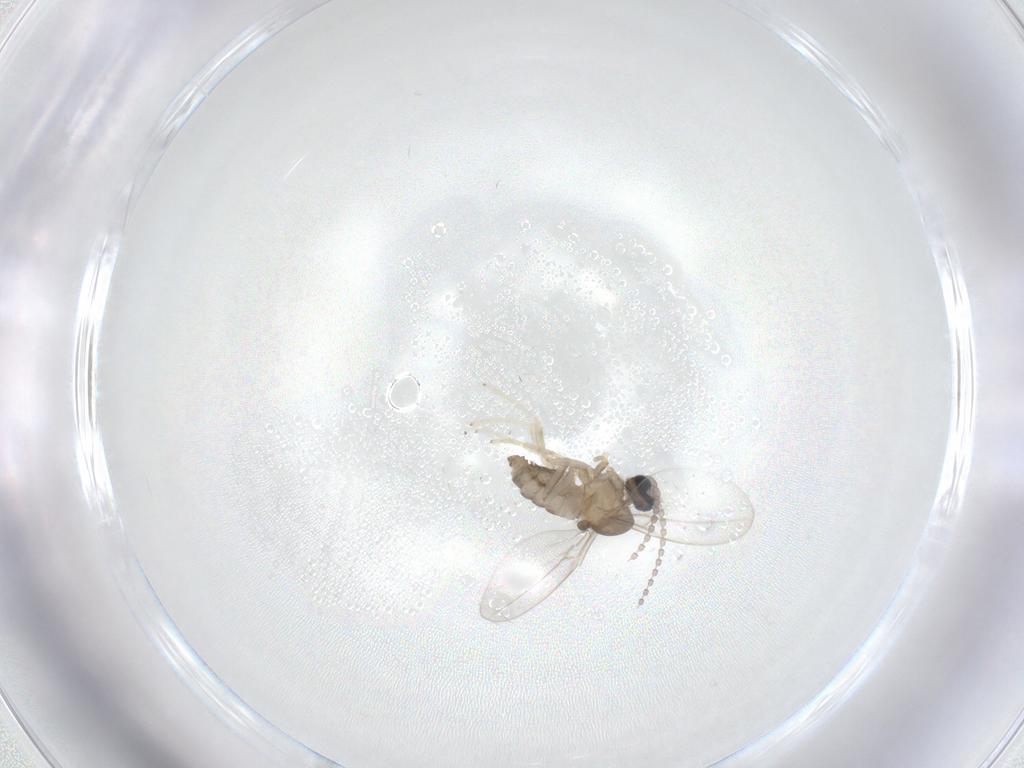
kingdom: Animalia
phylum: Arthropoda
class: Insecta
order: Diptera
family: Cecidomyiidae
